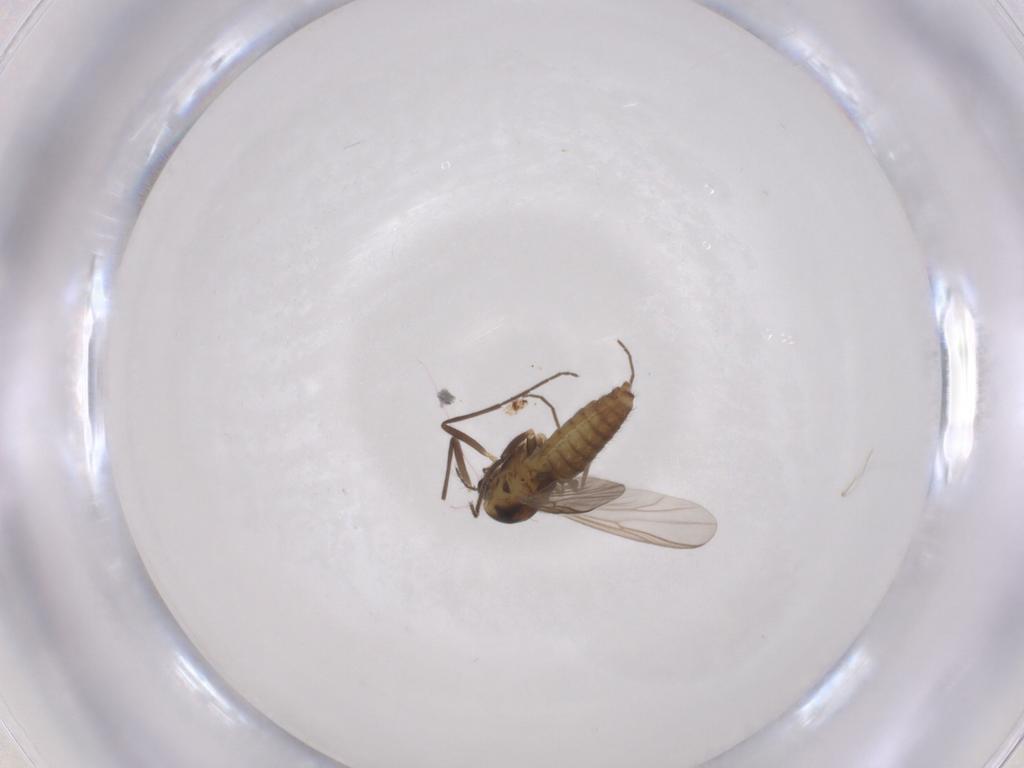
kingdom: Animalia
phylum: Arthropoda
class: Insecta
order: Diptera
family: Chironomidae
